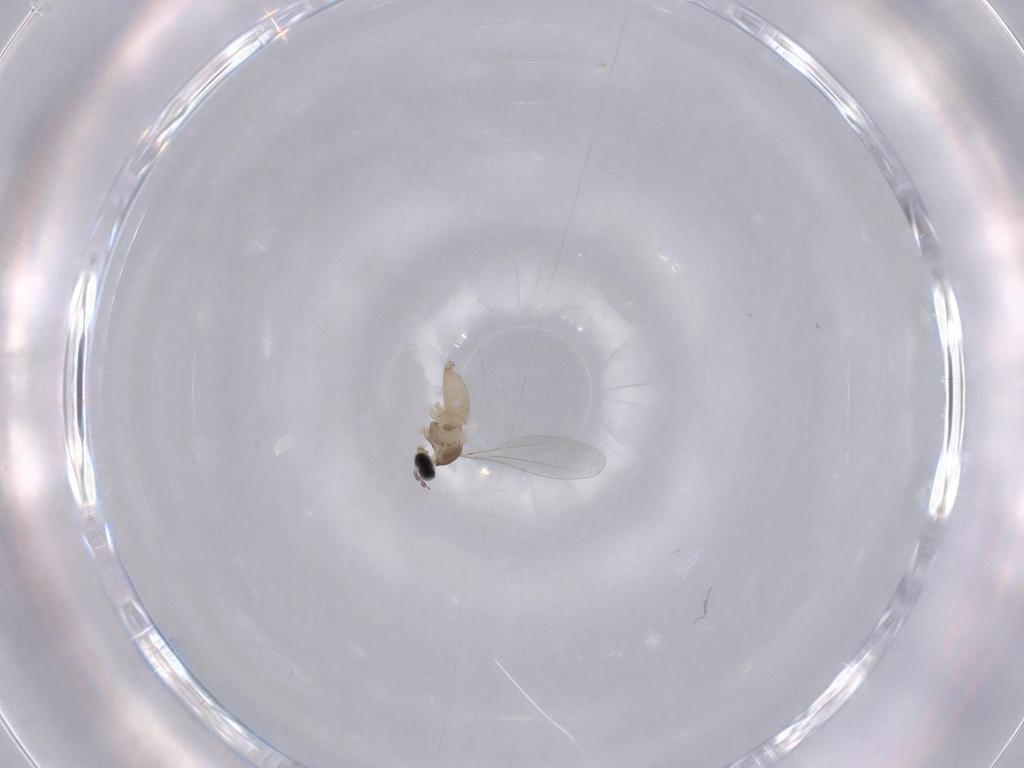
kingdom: Animalia
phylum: Arthropoda
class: Insecta
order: Diptera
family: Cecidomyiidae
